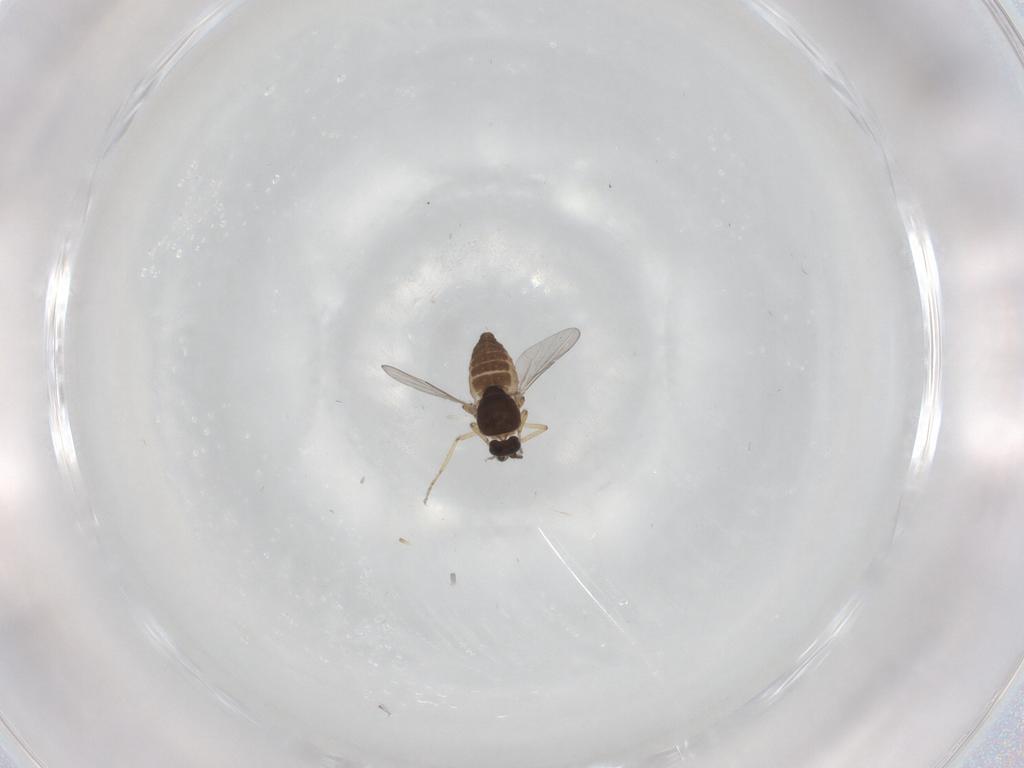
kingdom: Animalia
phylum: Arthropoda
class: Insecta
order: Diptera
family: Ceratopogonidae
